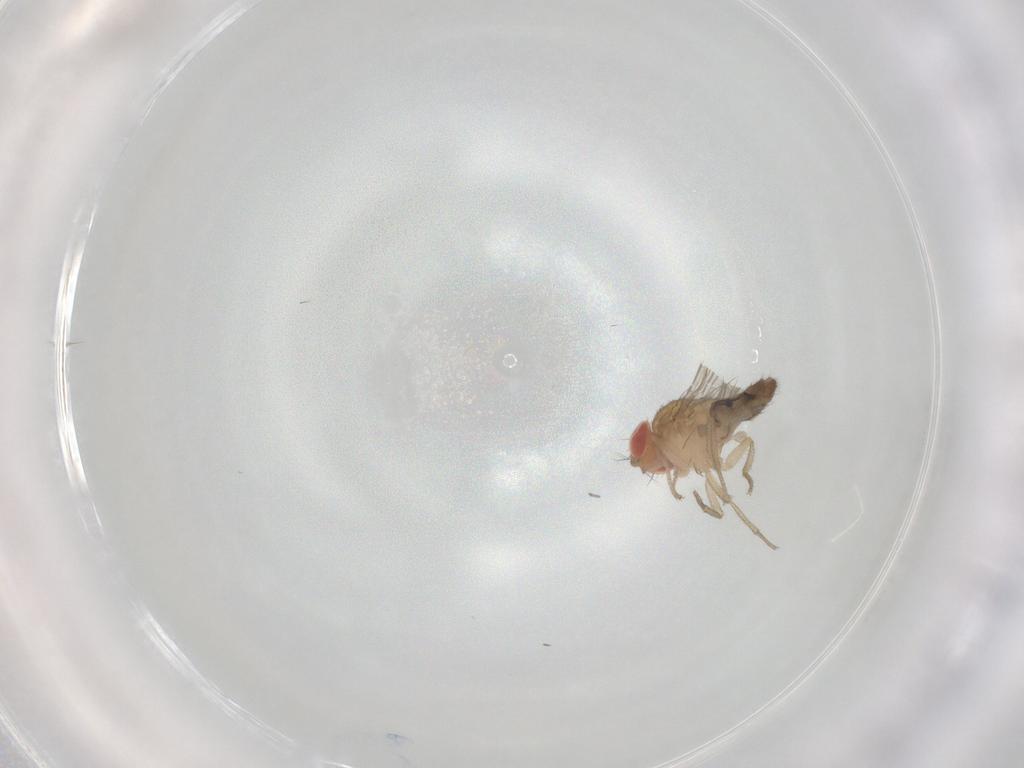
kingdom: Animalia
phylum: Arthropoda
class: Insecta
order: Diptera
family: Drosophilidae
